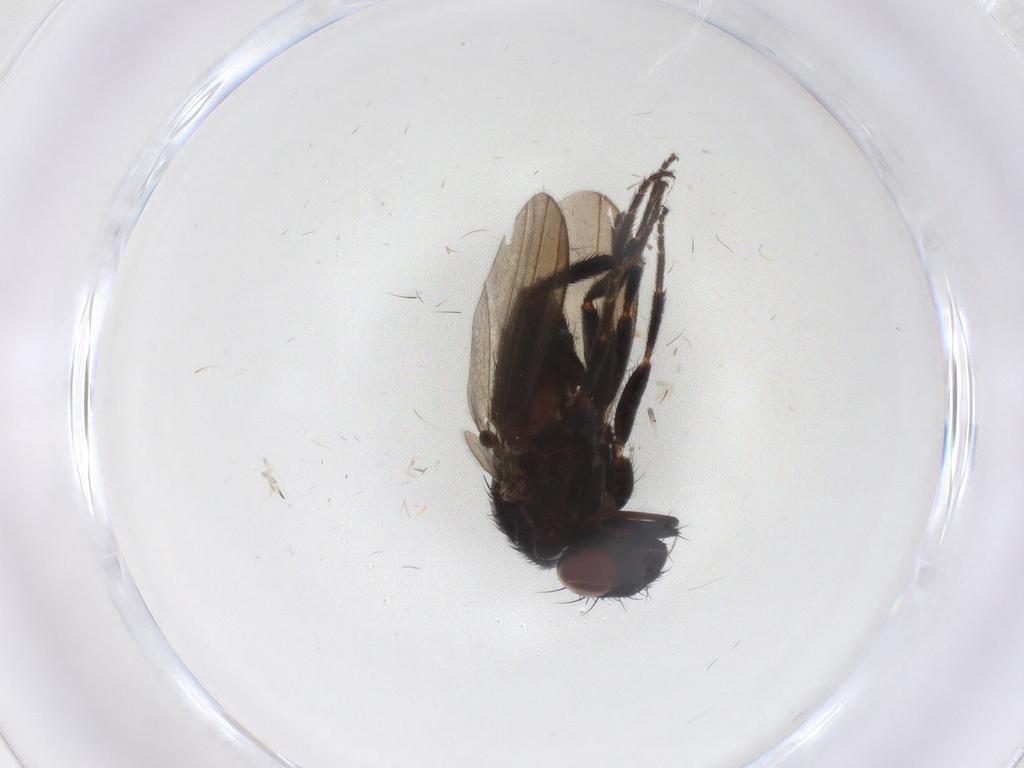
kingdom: Animalia
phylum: Arthropoda
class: Insecta
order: Diptera
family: Milichiidae
